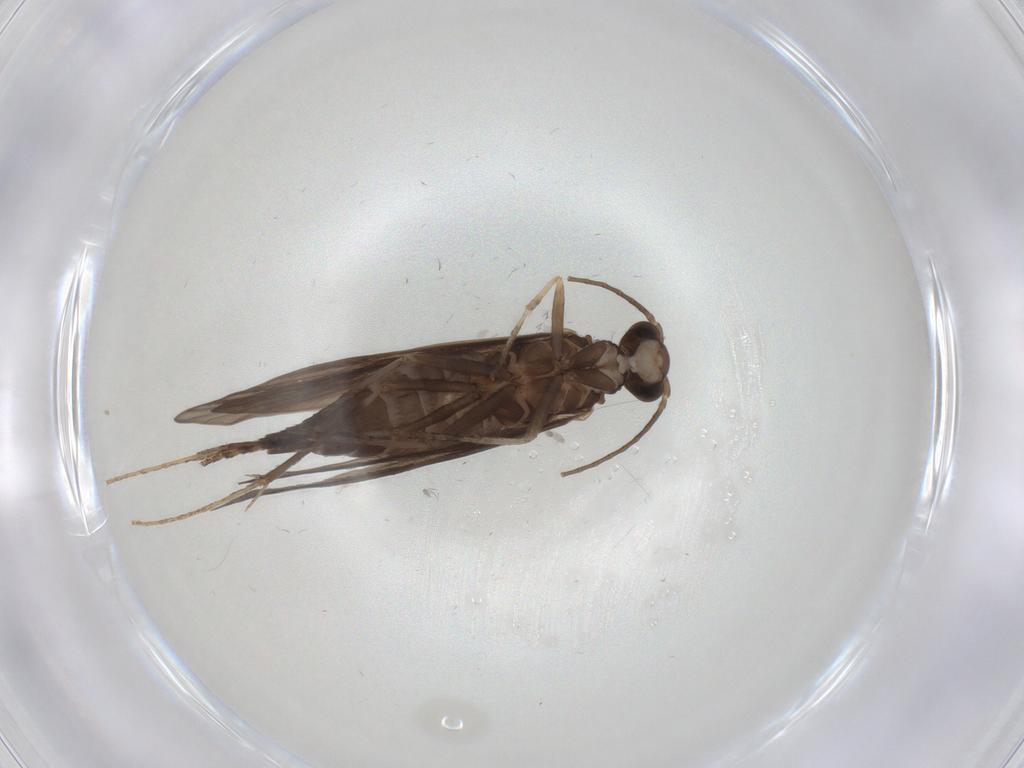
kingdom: Animalia
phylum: Arthropoda
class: Insecta
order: Trichoptera
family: Xiphocentronidae
